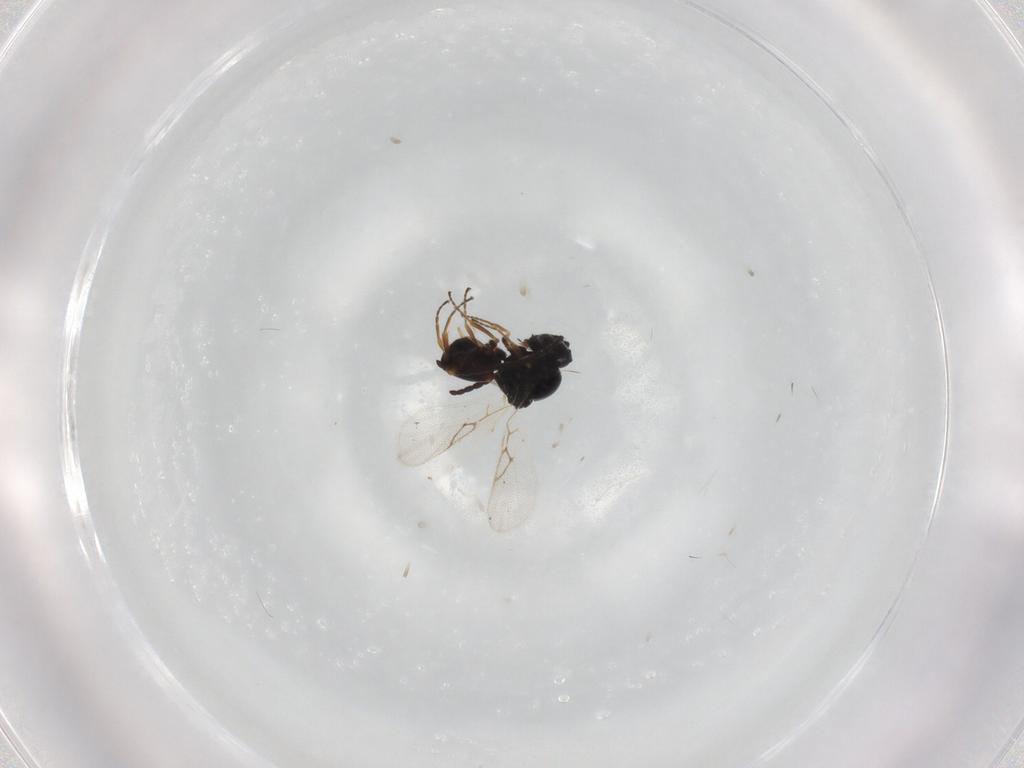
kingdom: Animalia
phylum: Arthropoda
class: Insecta
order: Hymenoptera
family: Figitidae
